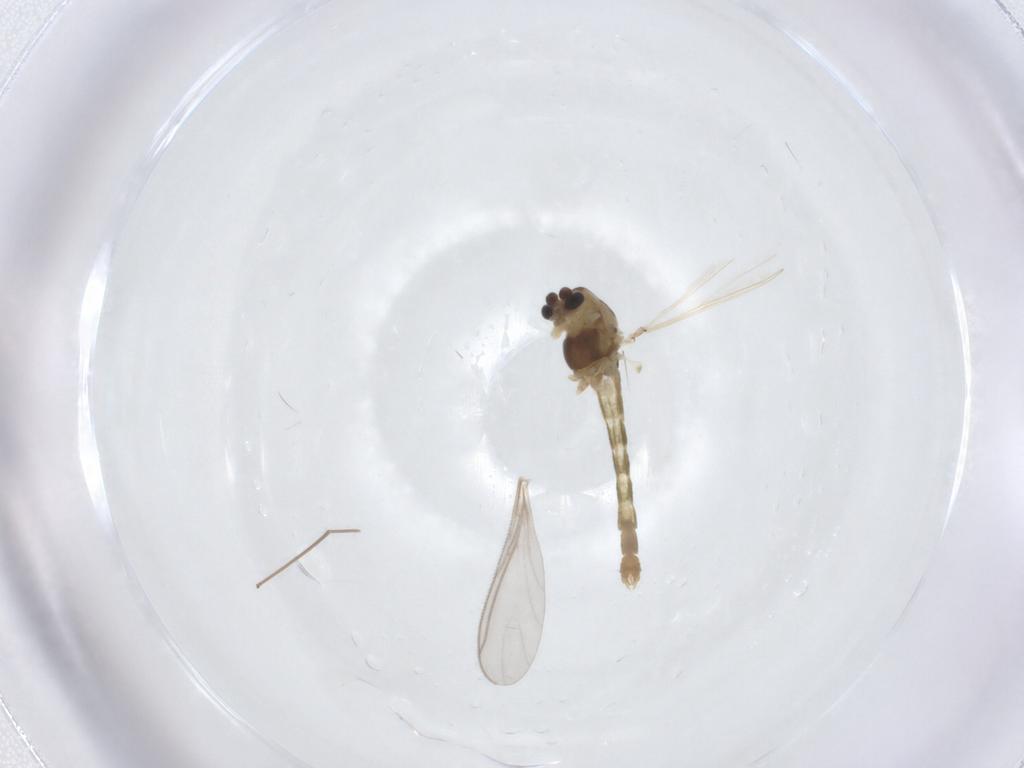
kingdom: Animalia
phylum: Arthropoda
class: Insecta
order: Diptera
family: Chironomidae
